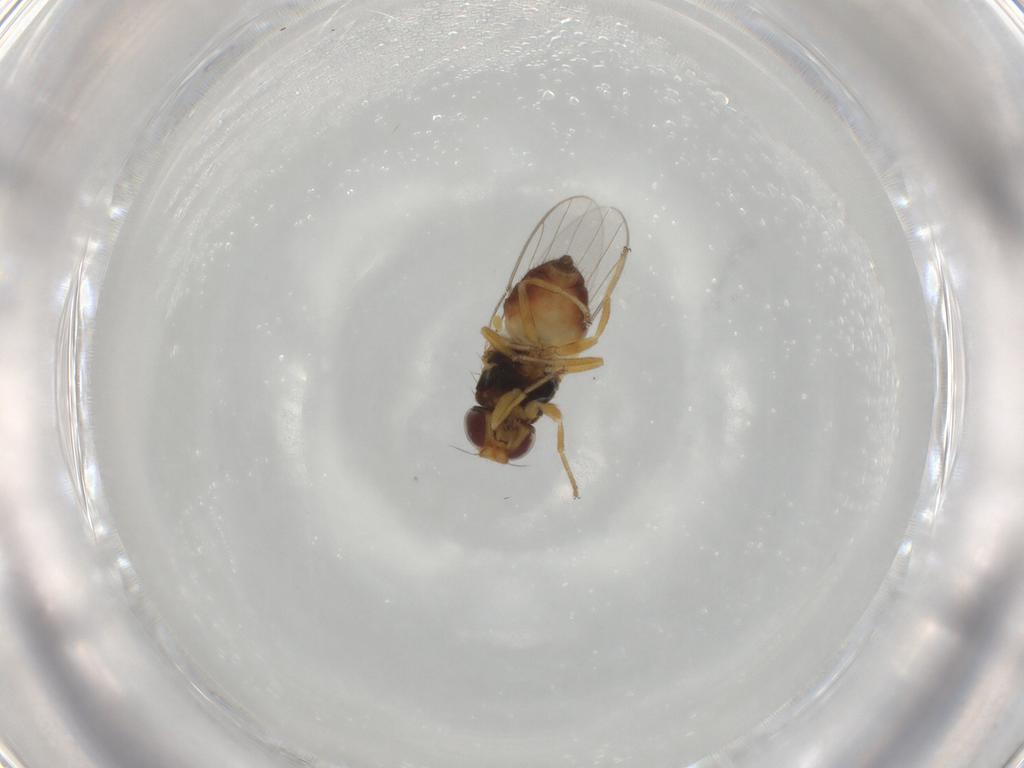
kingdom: Animalia
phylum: Arthropoda
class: Insecta
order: Diptera
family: Chloropidae
